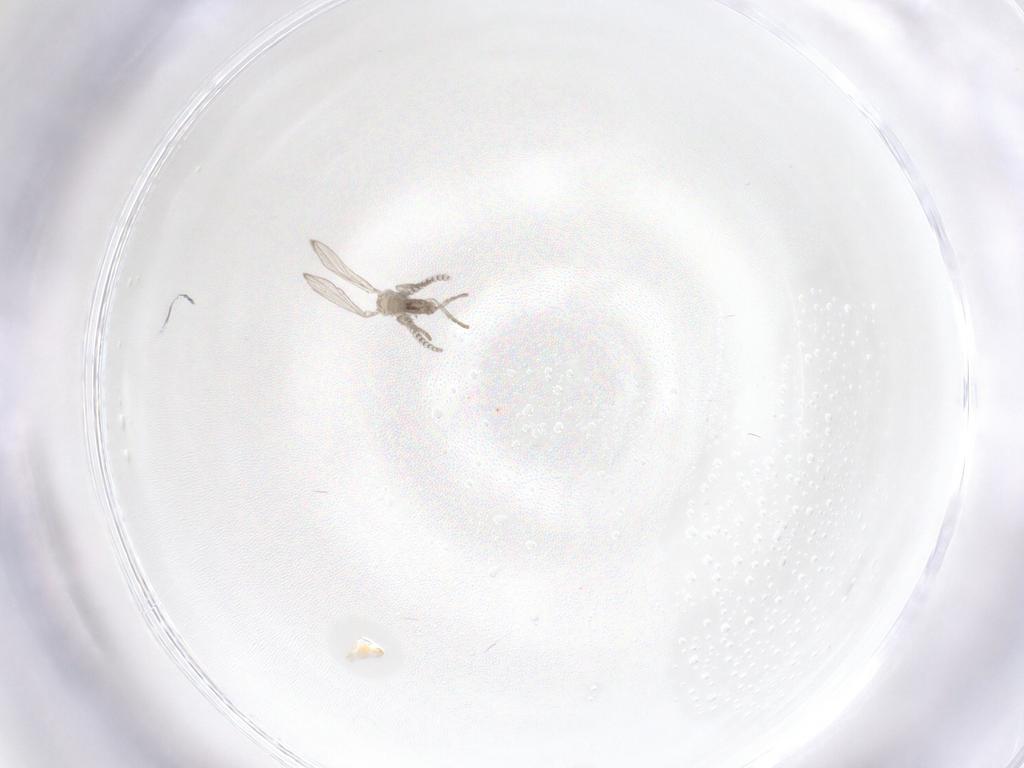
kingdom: Animalia
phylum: Arthropoda
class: Insecta
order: Diptera
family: Psychodidae
